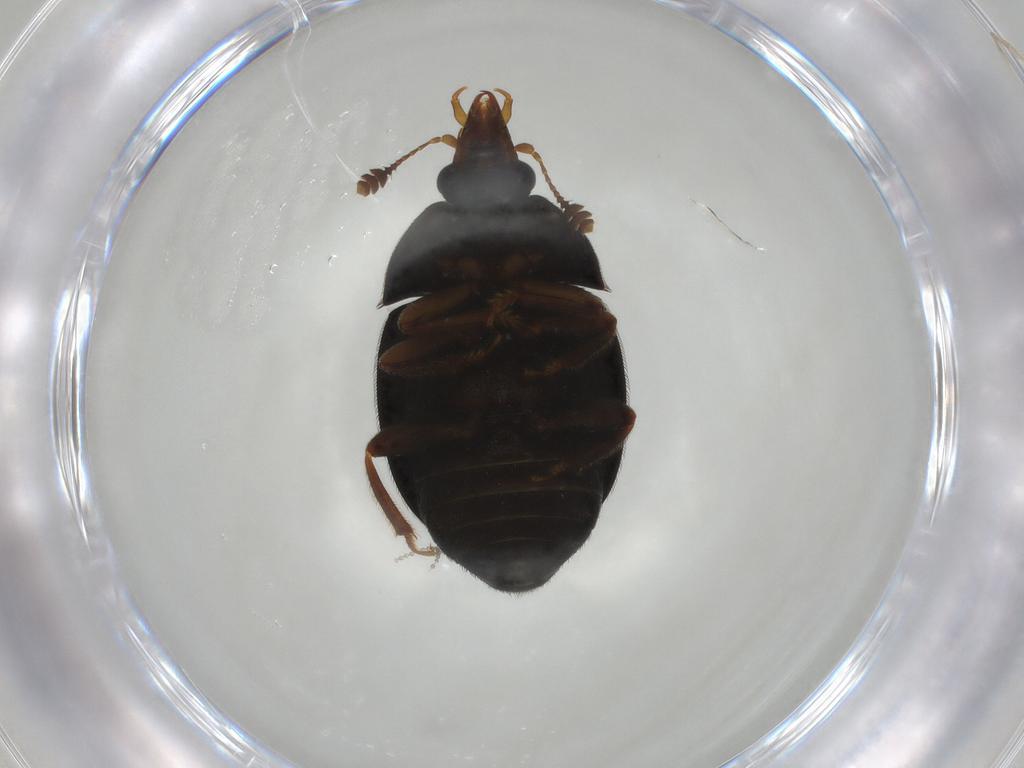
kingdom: Animalia
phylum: Arthropoda
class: Insecta
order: Coleoptera
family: Ptilodactylidae
